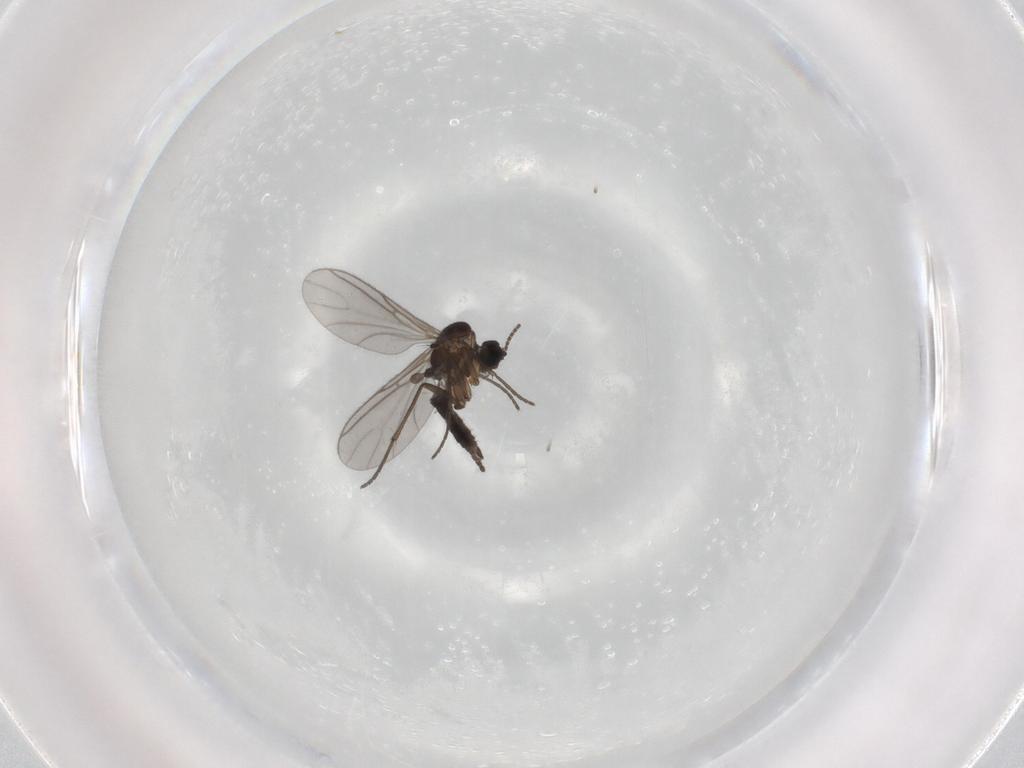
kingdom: Animalia
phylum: Arthropoda
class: Insecta
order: Diptera
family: Sciaridae
